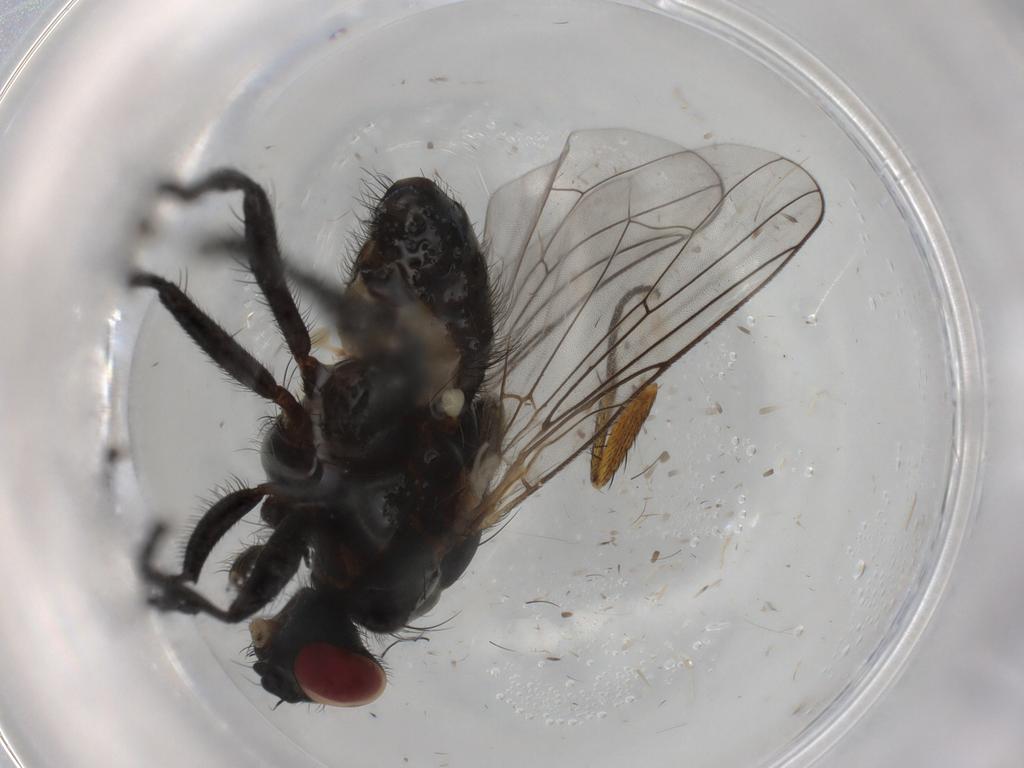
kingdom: Animalia
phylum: Arthropoda
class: Insecta
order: Diptera
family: Anthomyiidae
